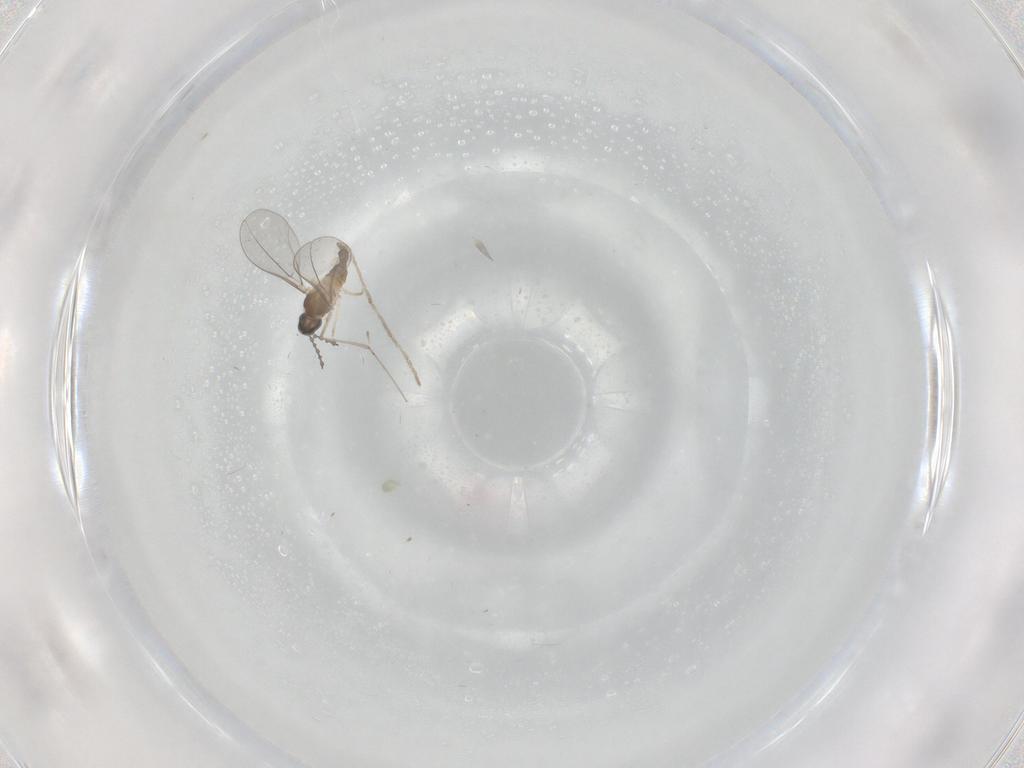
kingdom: Animalia
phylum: Arthropoda
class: Insecta
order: Diptera
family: Cecidomyiidae
